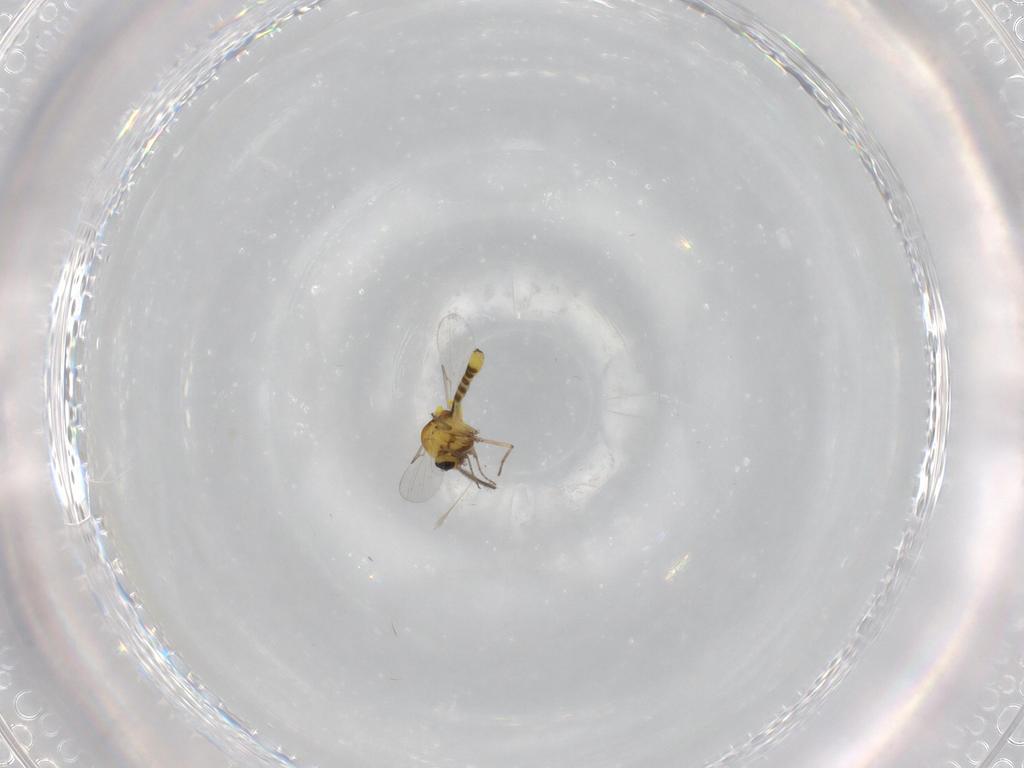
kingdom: Animalia
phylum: Arthropoda
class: Insecta
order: Diptera
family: Ceratopogonidae
